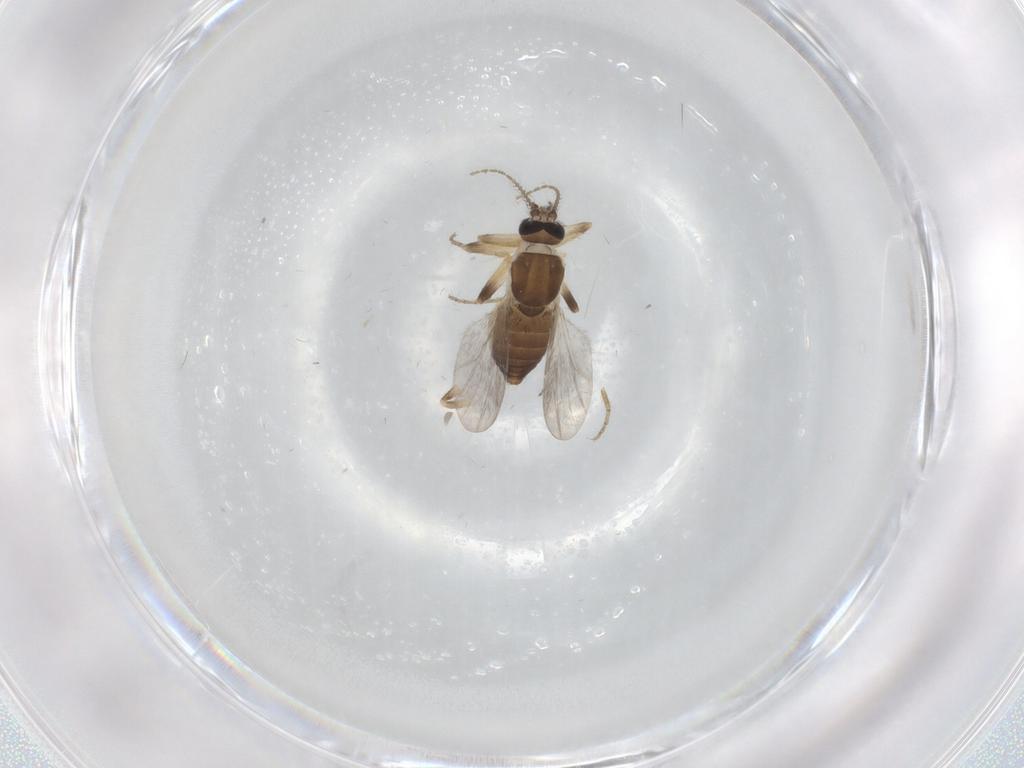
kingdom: Animalia
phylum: Arthropoda
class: Insecta
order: Diptera
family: Ceratopogonidae
